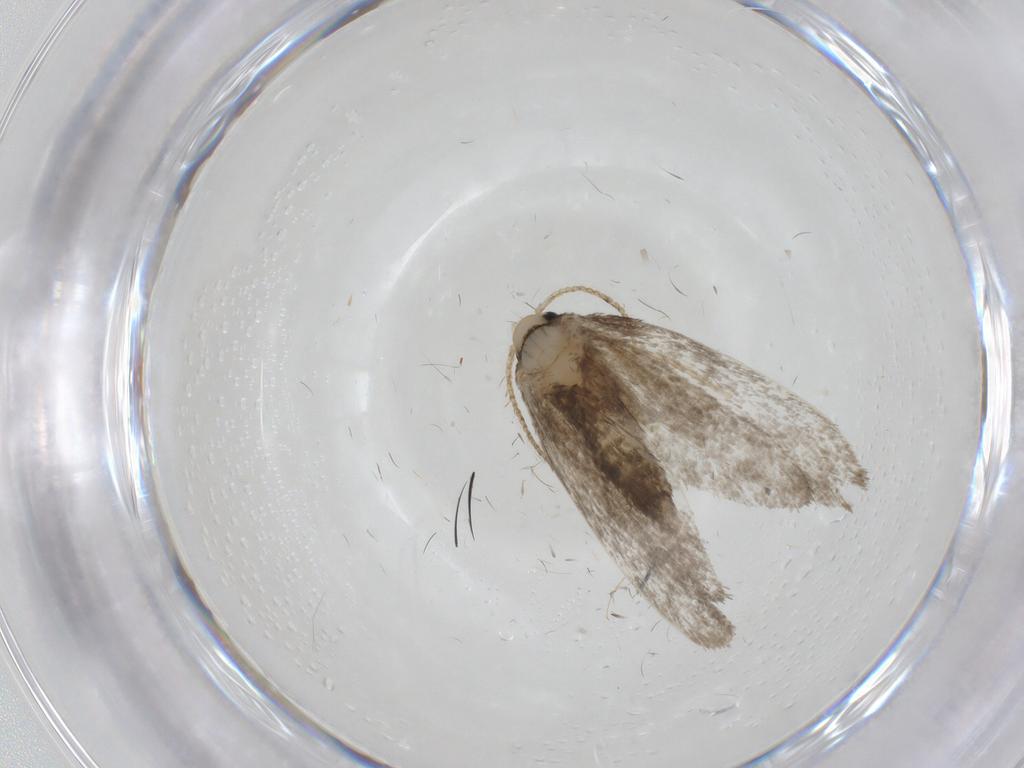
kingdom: Animalia
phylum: Arthropoda
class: Insecta
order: Lepidoptera
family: Psychidae
